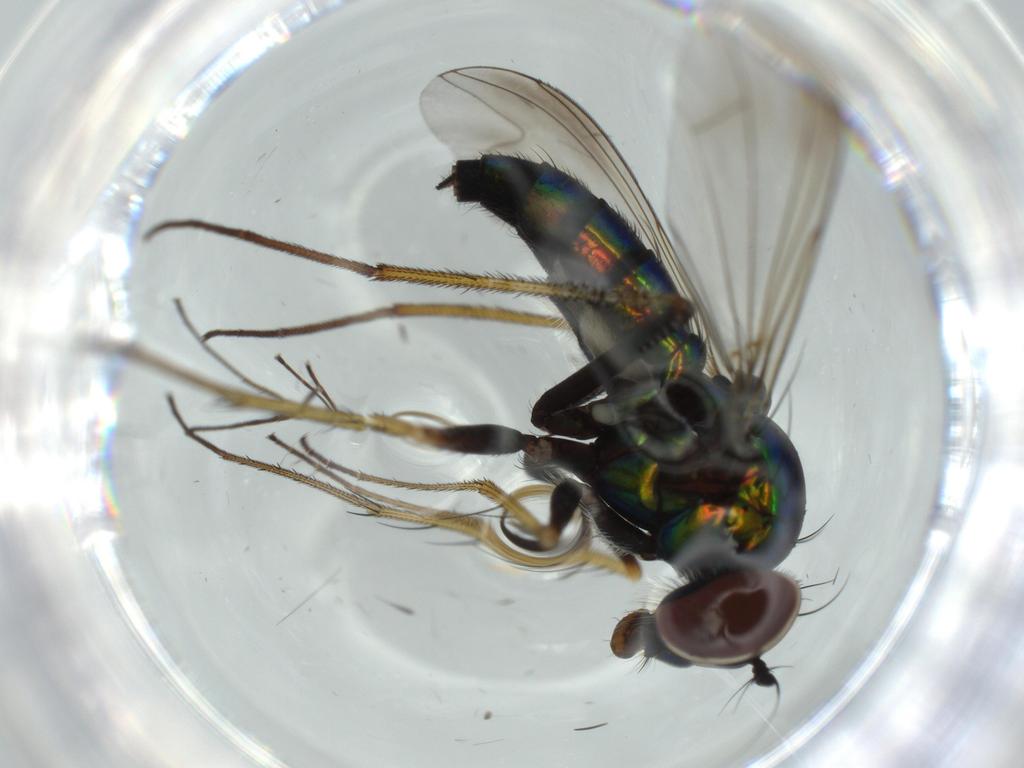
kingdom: Animalia
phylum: Arthropoda
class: Insecta
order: Diptera
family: Dolichopodidae
